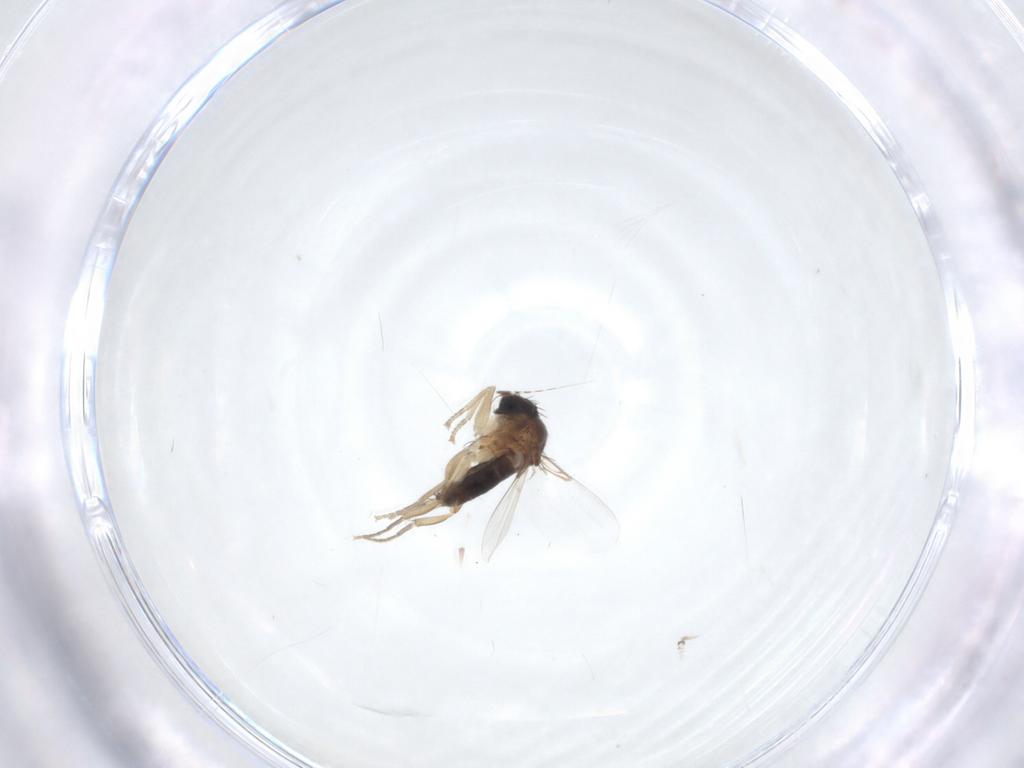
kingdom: Animalia
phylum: Arthropoda
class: Insecta
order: Diptera
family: Phoridae
